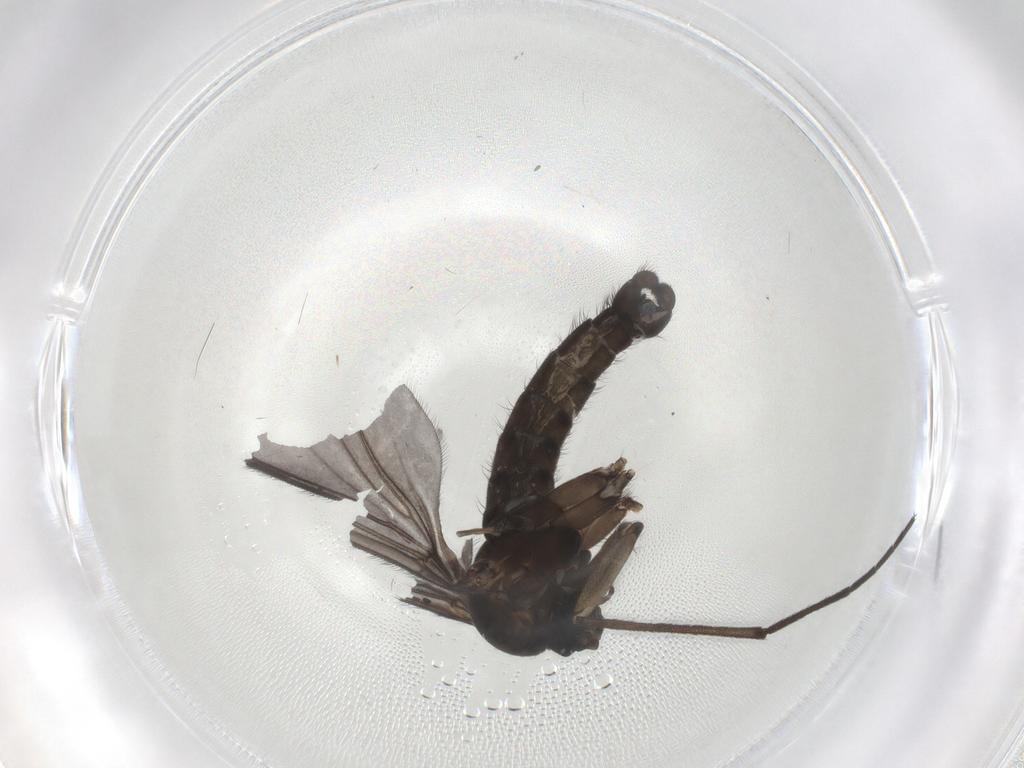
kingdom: Animalia
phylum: Arthropoda
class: Insecta
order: Diptera
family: Sciaridae
